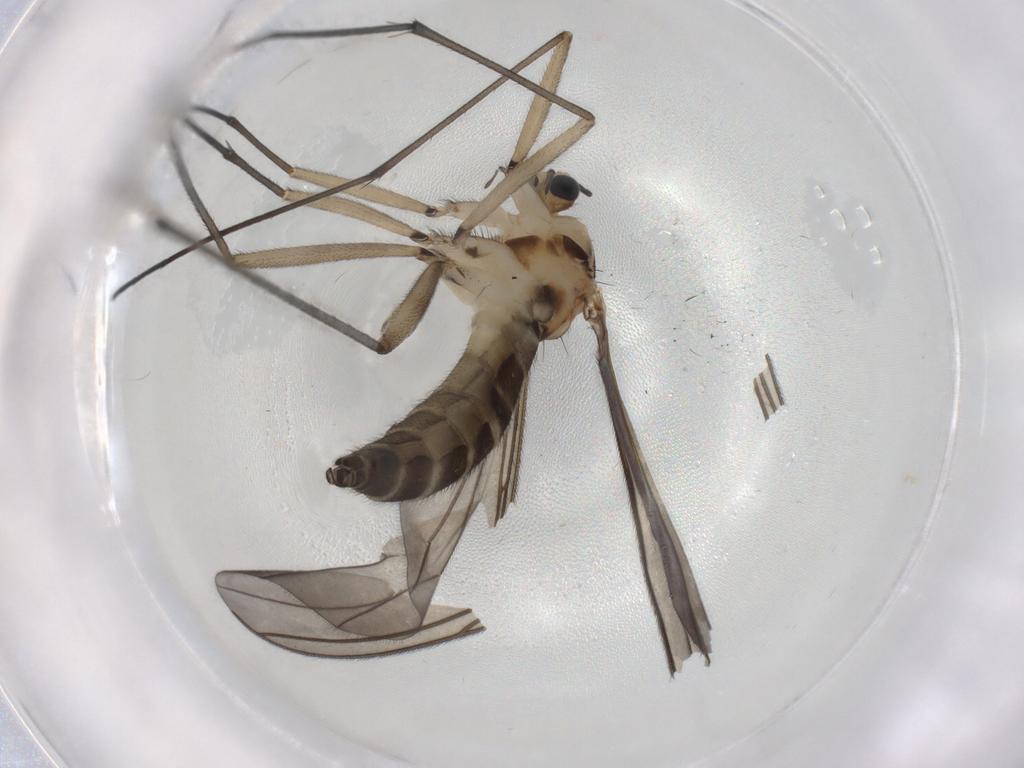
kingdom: Animalia
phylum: Arthropoda
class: Insecta
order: Diptera
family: Sciaridae
